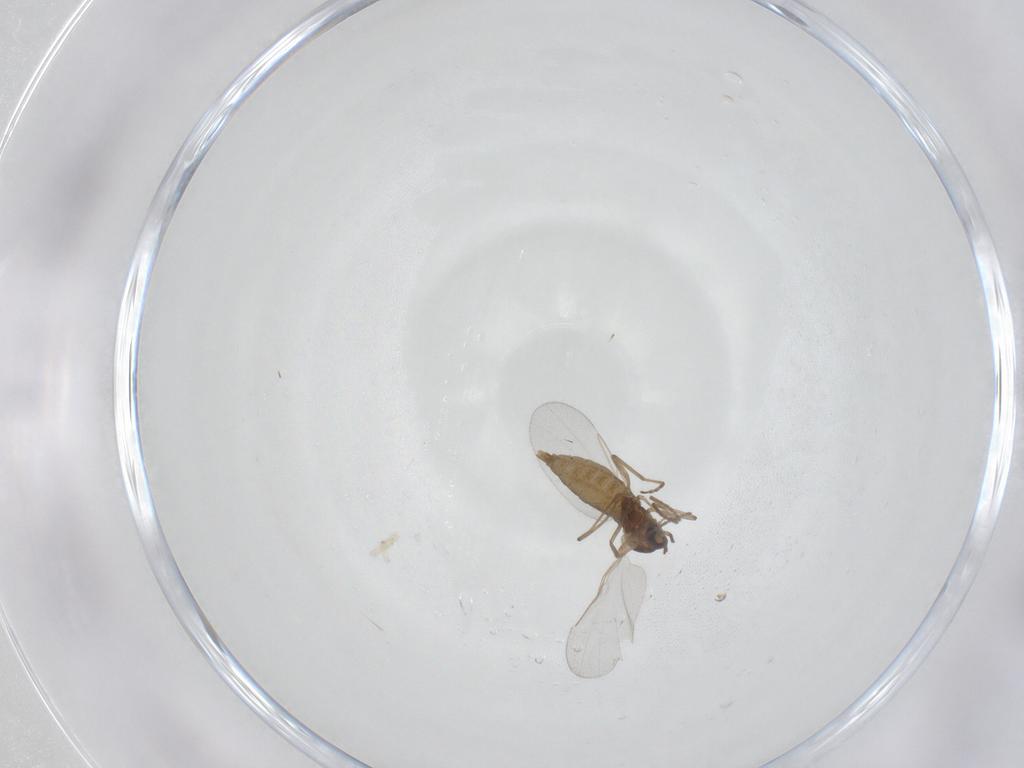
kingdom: Animalia
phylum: Arthropoda
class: Insecta
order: Diptera
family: Cecidomyiidae
